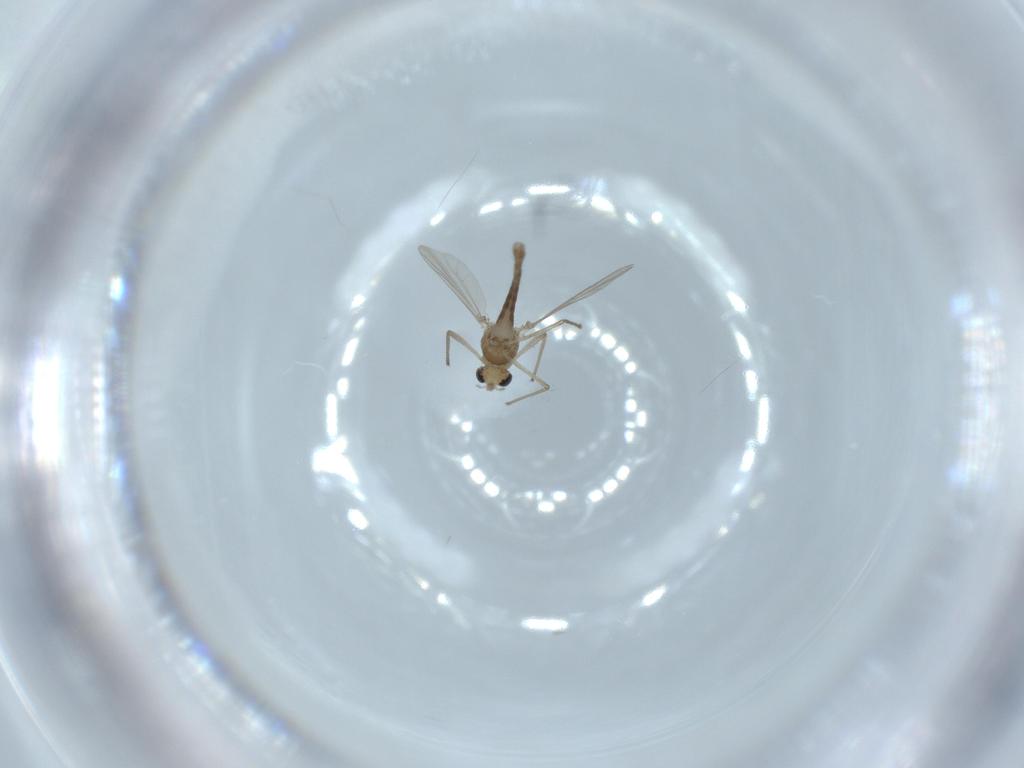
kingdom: Animalia
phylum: Arthropoda
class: Insecta
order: Diptera
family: Chironomidae
